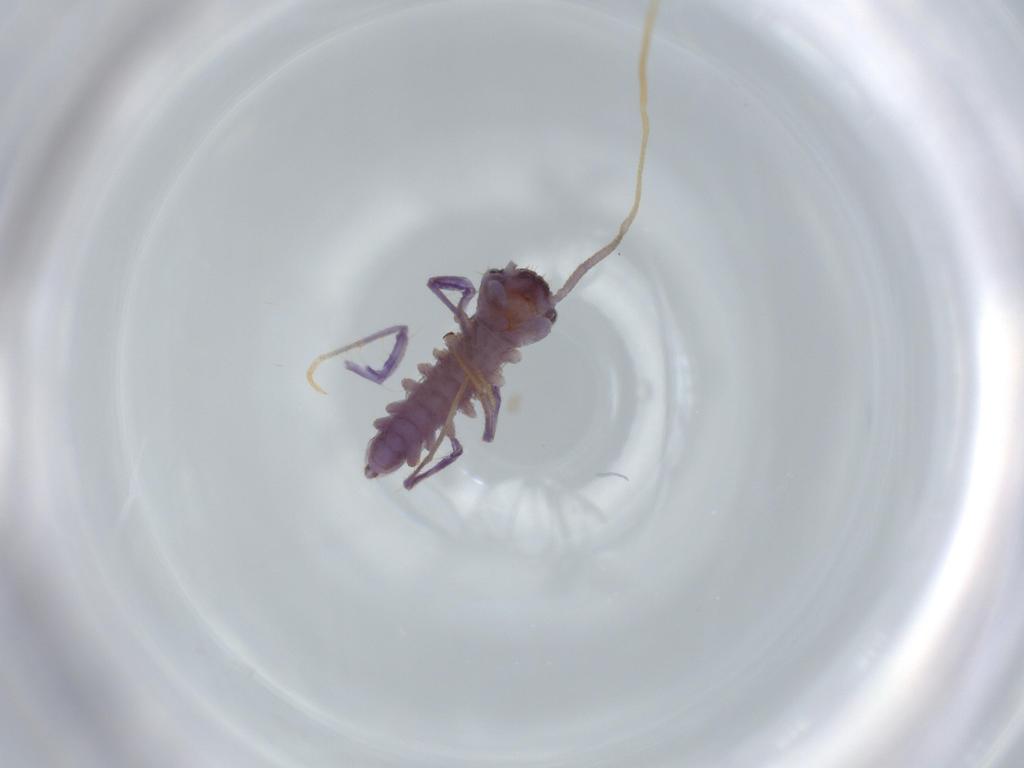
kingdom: Animalia
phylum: Arthropoda
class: Chilopoda
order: Scutigeromorpha
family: Scutigeridae
